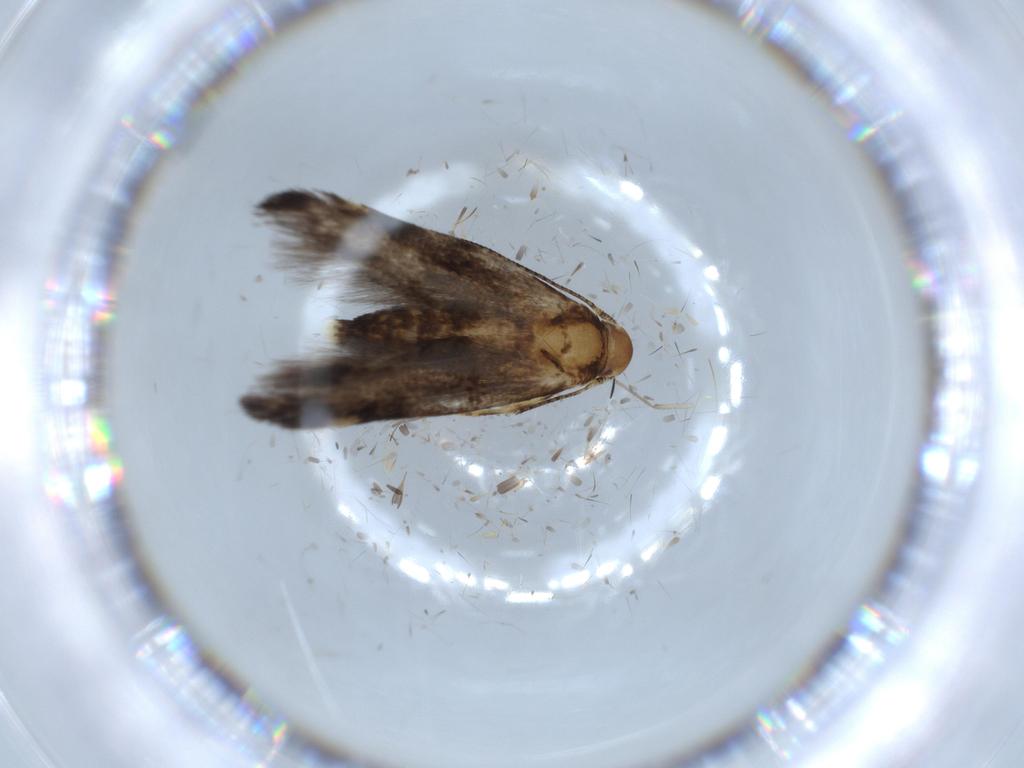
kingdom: Animalia
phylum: Arthropoda
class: Insecta
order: Lepidoptera
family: Momphidae
